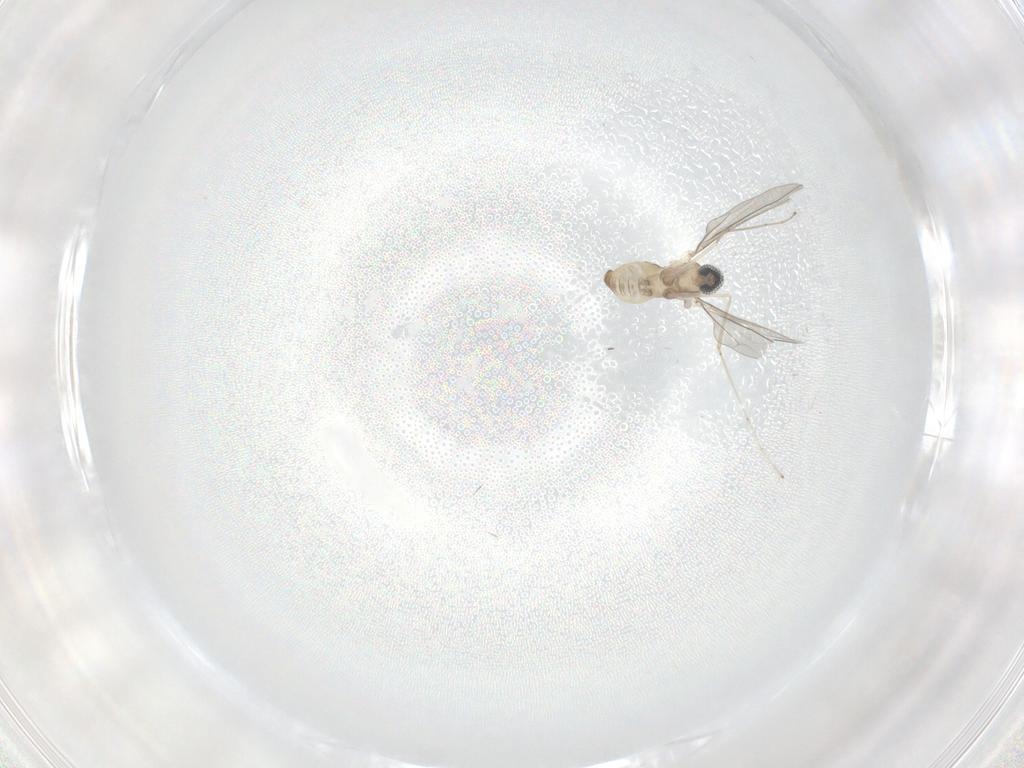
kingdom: Animalia
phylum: Arthropoda
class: Insecta
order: Diptera
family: Cecidomyiidae
